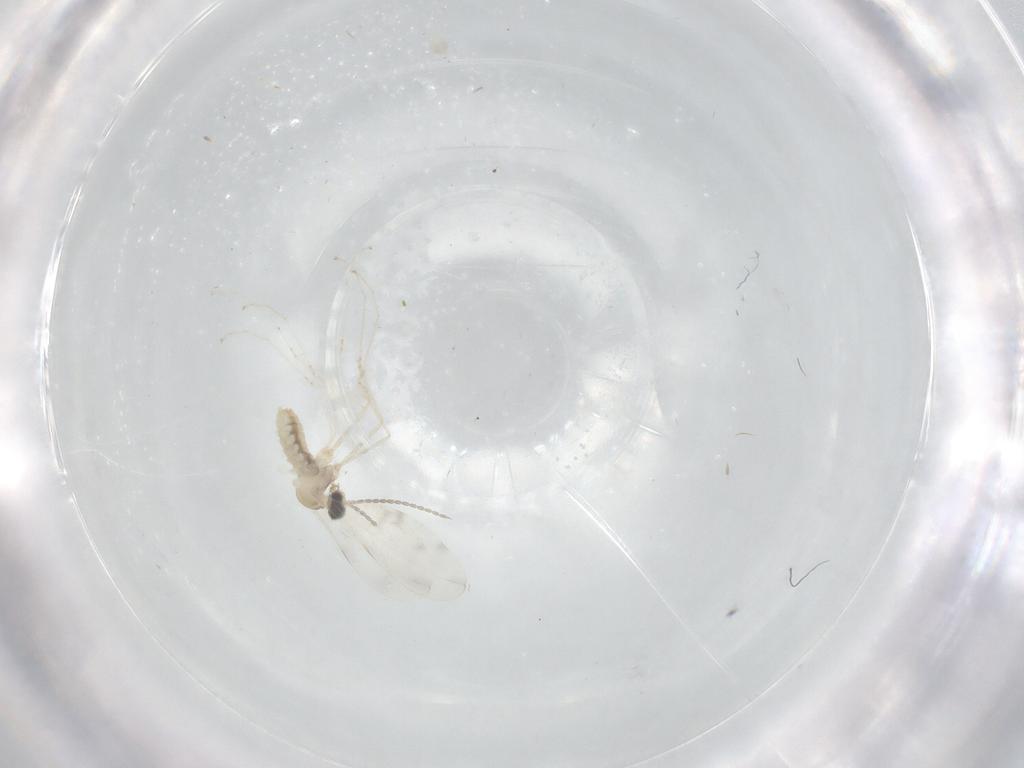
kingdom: Animalia
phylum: Arthropoda
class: Insecta
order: Diptera
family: Cecidomyiidae
